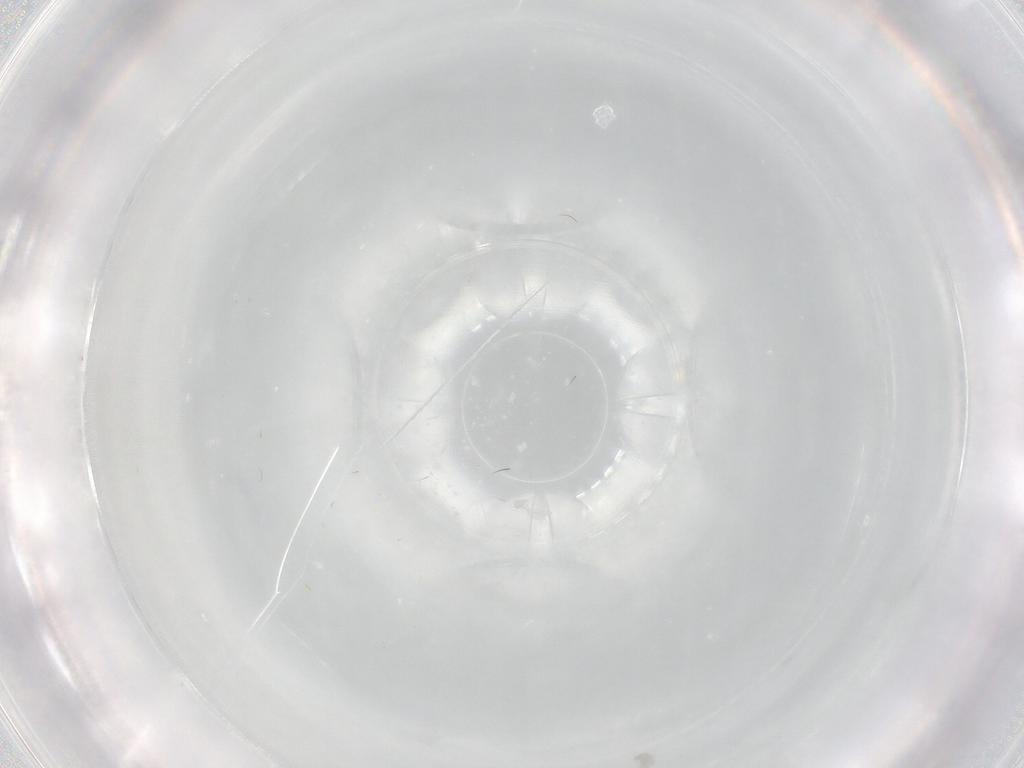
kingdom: Animalia
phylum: Arthropoda
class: Insecta
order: Diptera
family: Cecidomyiidae
